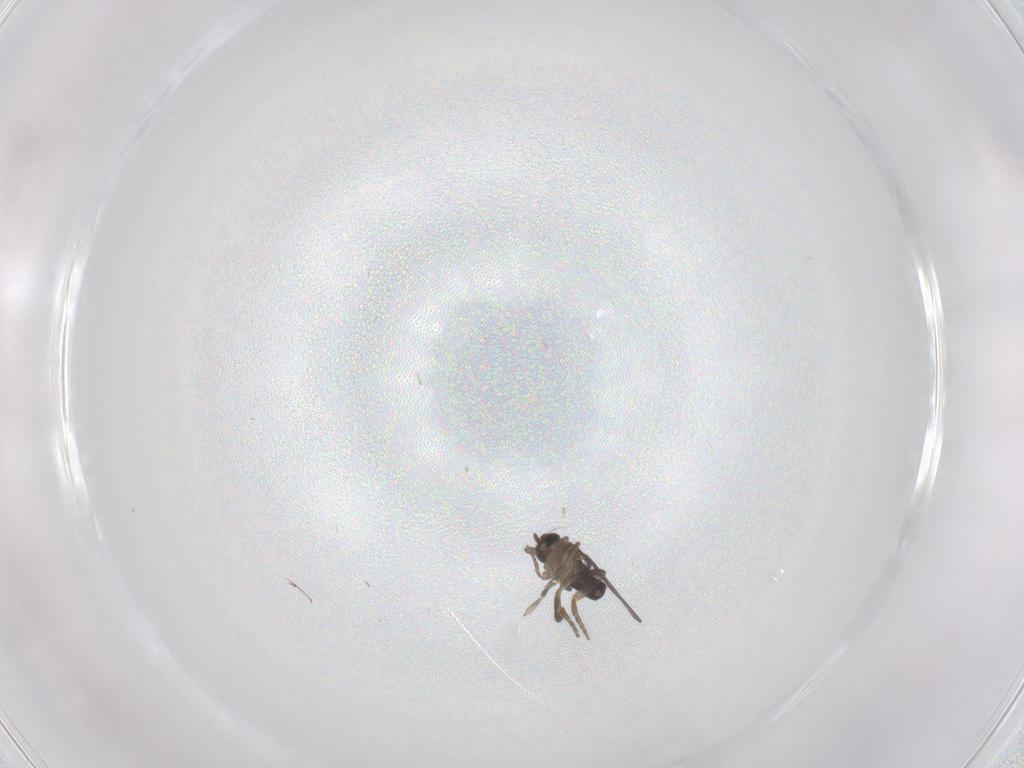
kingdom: Animalia
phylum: Arthropoda
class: Insecta
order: Diptera
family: Cecidomyiidae
